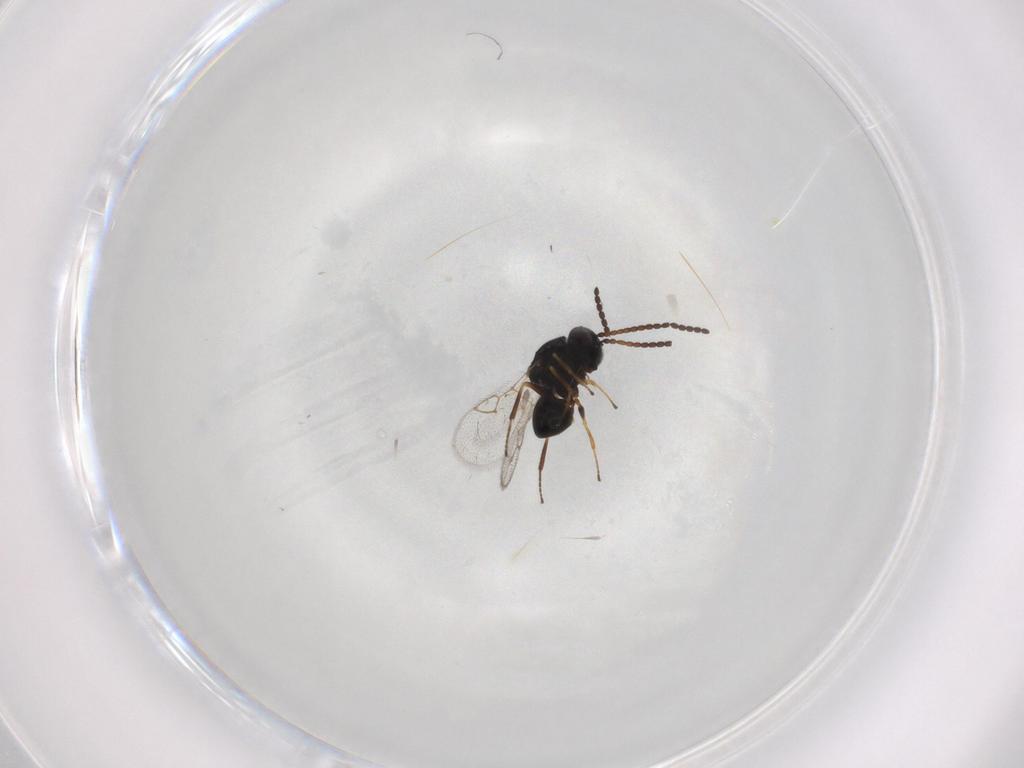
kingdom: Animalia
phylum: Arthropoda
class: Insecta
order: Hymenoptera
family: Figitidae
